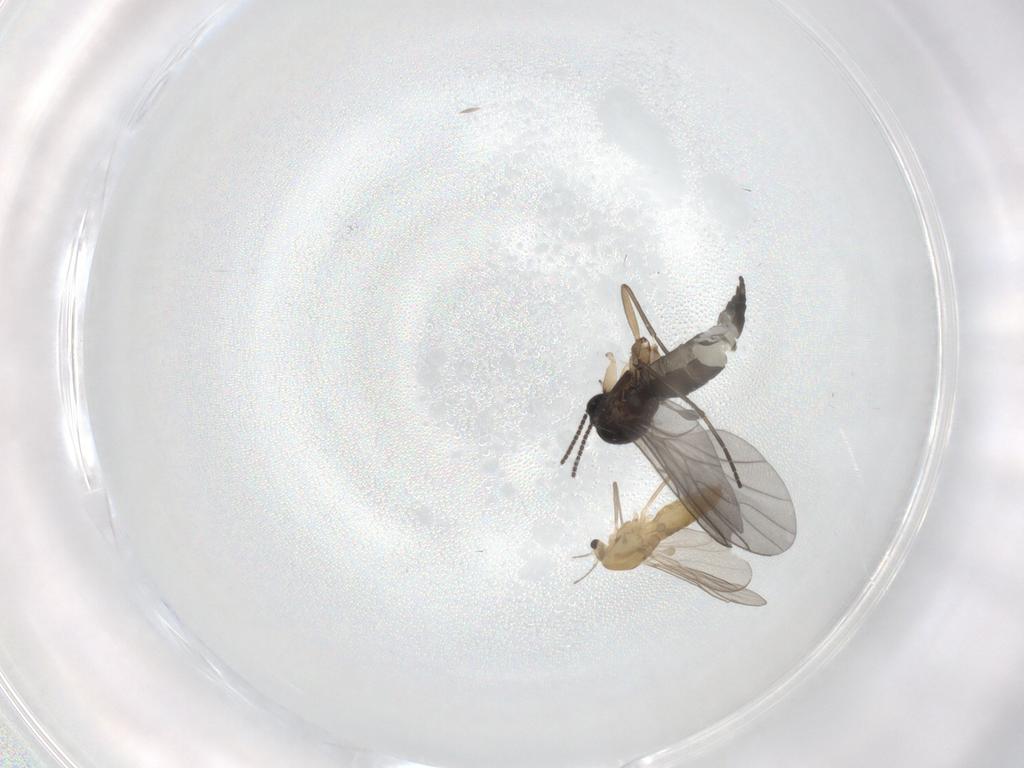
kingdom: Animalia
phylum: Arthropoda
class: Insecta
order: Diptera
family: Chironomidae
